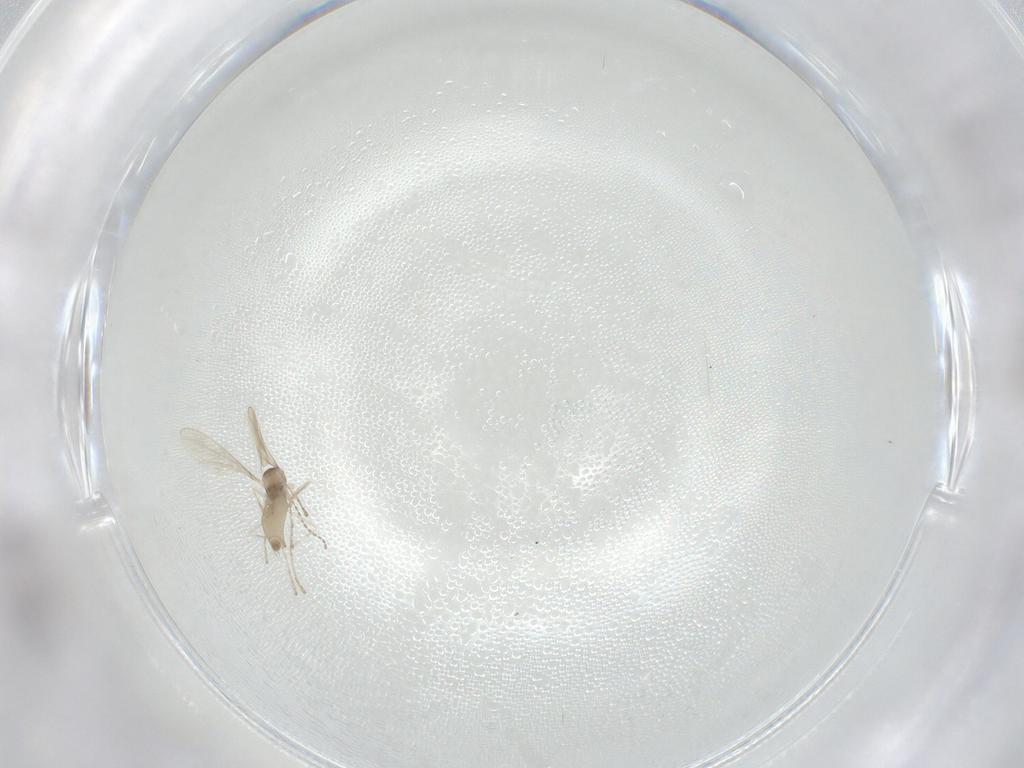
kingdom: Animalia
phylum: Arthropoda
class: Insecta
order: Diptera
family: Cecidomyiidae
